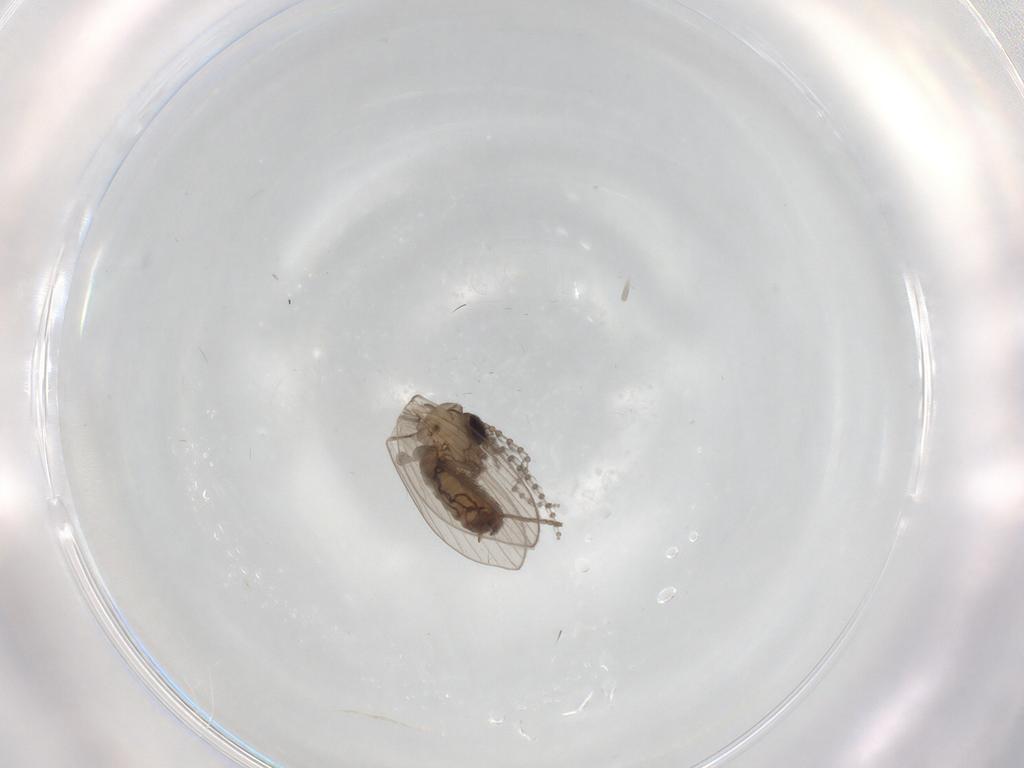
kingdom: Animalia
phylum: Arthropoda
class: Insecta
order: Diptera
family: Psychodidae
